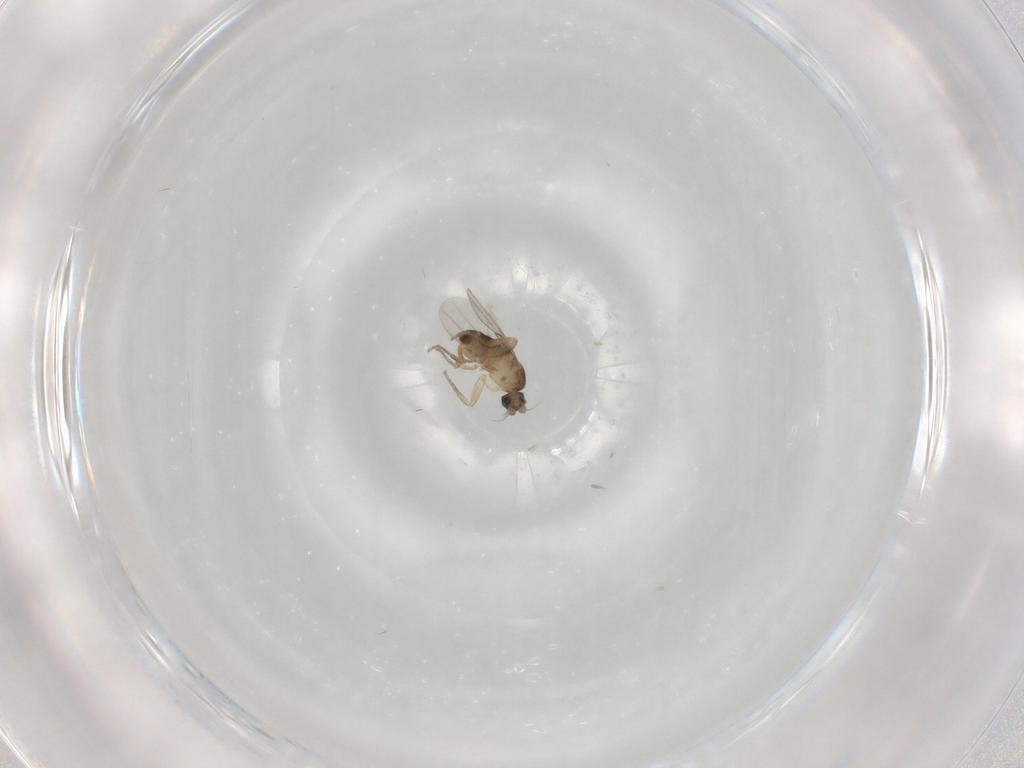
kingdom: Animalia
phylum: Arthropoda
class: Insecta
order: Diptera
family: Phoridae
